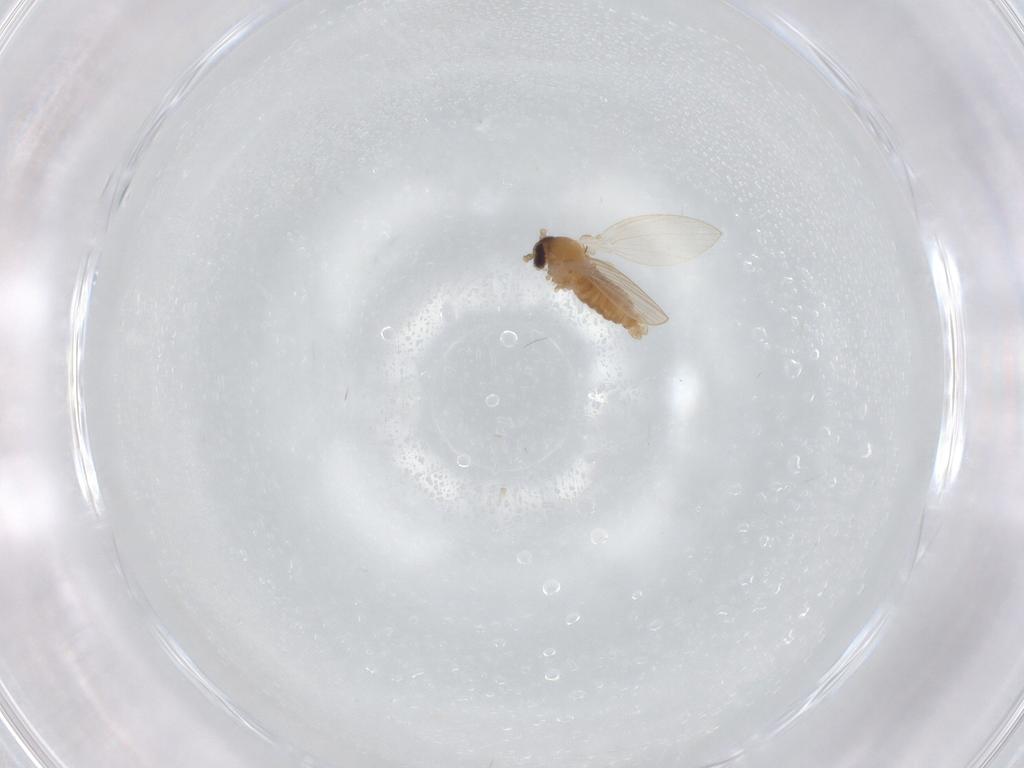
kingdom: Animalia
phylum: Arthropoda
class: Insecta
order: Diptera
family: Psychodidae
